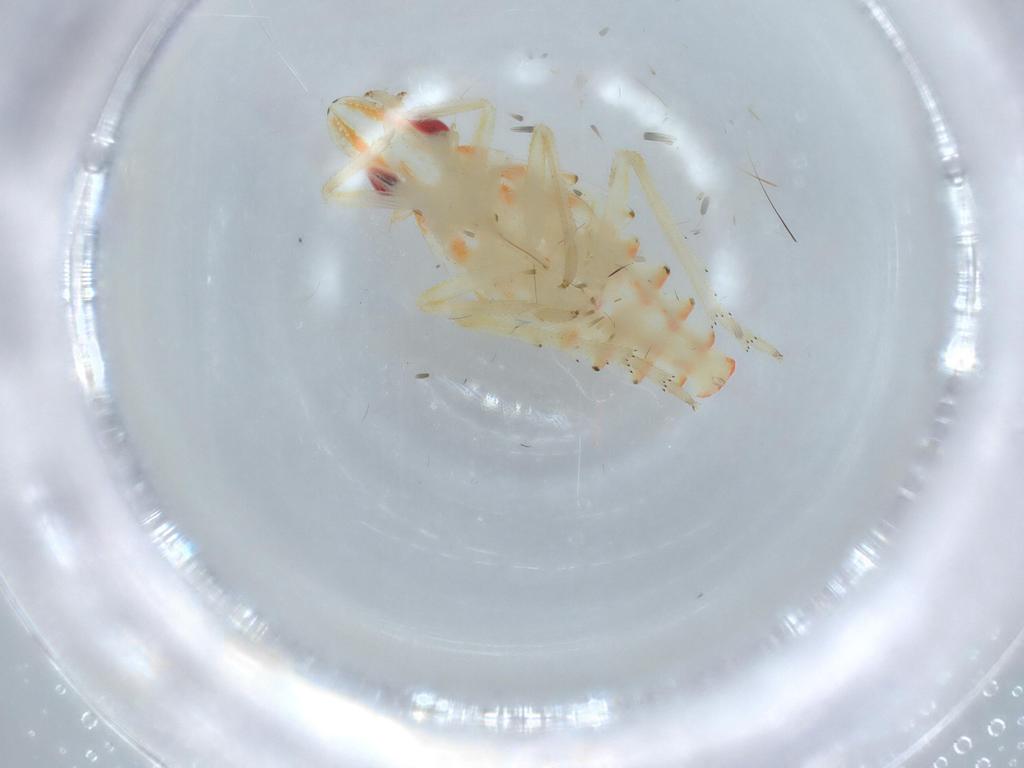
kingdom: Animalia
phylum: Arthropoda
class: Insecta
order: Hemiptera
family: Tropiduchidae
